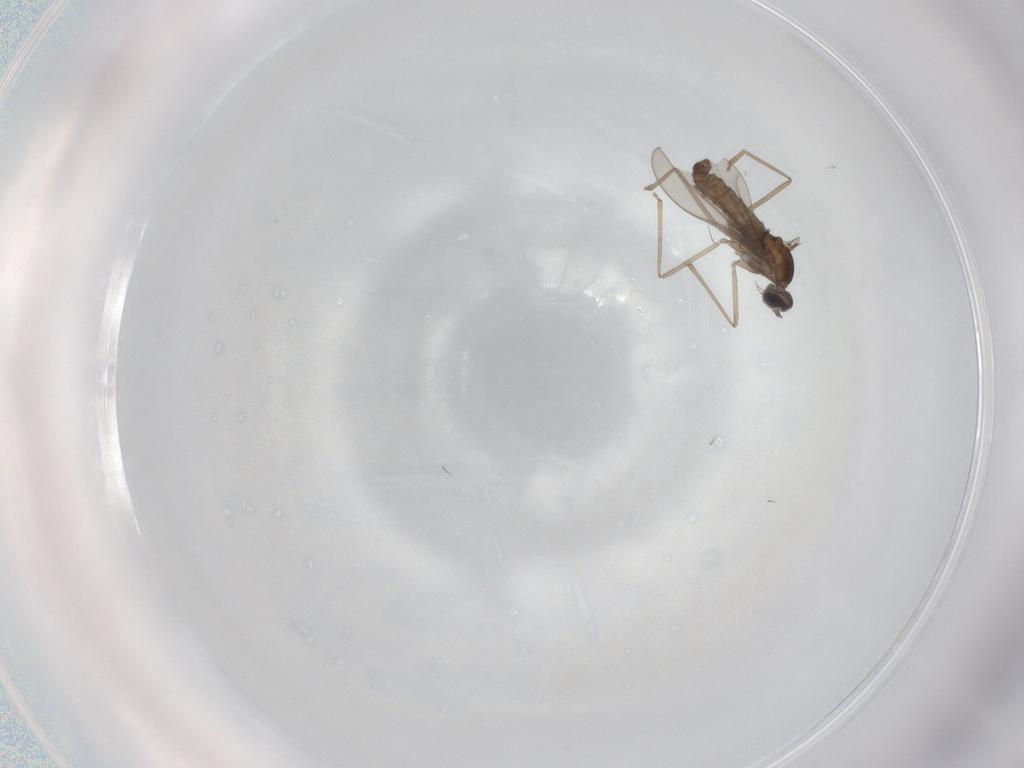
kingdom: Animalia
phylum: Arthropoda
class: Insecta
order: Diptera
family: Cecidomyiidae
